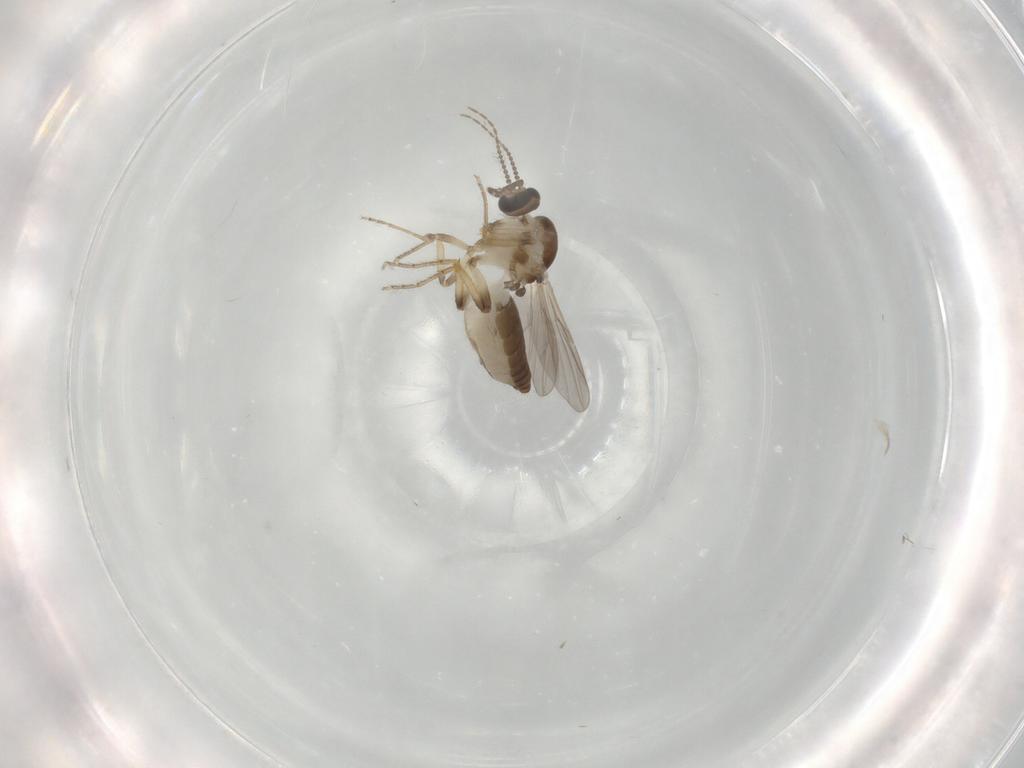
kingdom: Animalia
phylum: Arthropoda
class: Insecta
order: Diptera
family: Ceratopogonidae
